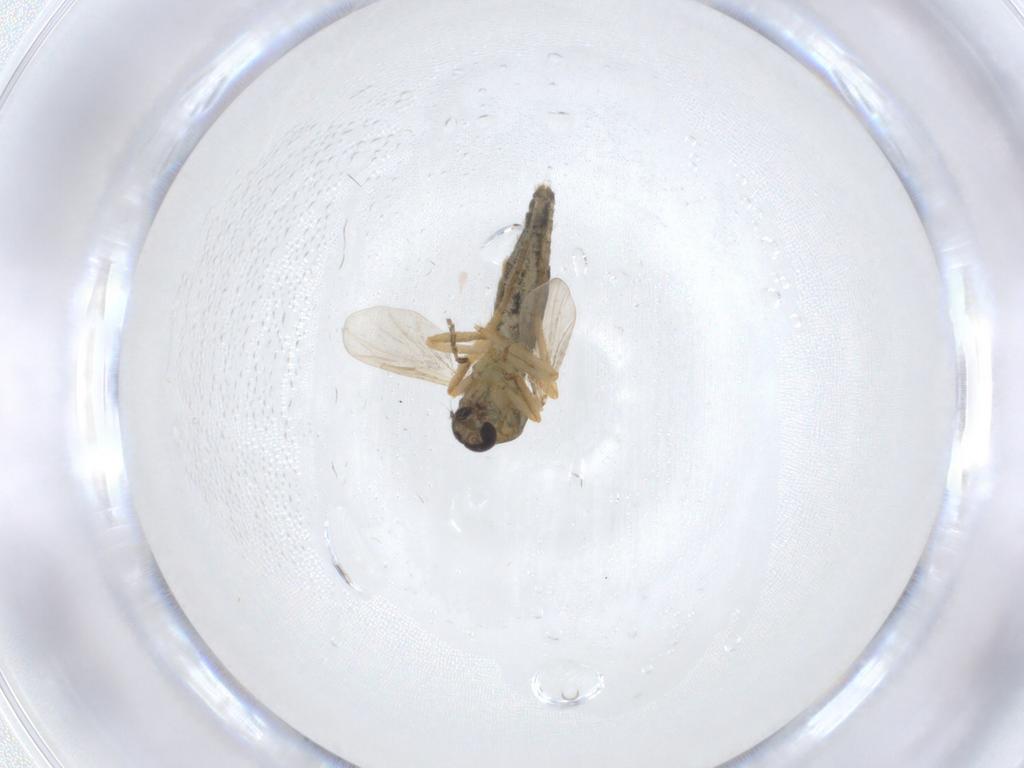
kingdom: Animalia
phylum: Arthropoda
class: Insecta
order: Diptera
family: Ceratopogonidae
